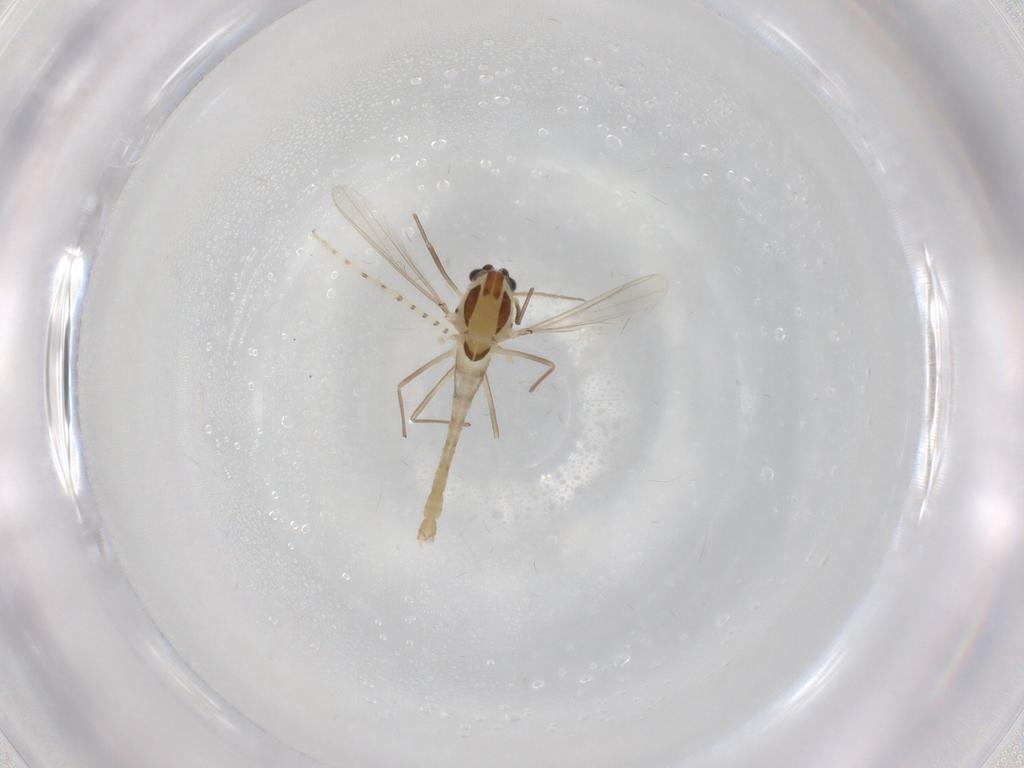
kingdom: Animalia
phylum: Arthropoda
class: Insecta
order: Diptera
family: Chironomidae
